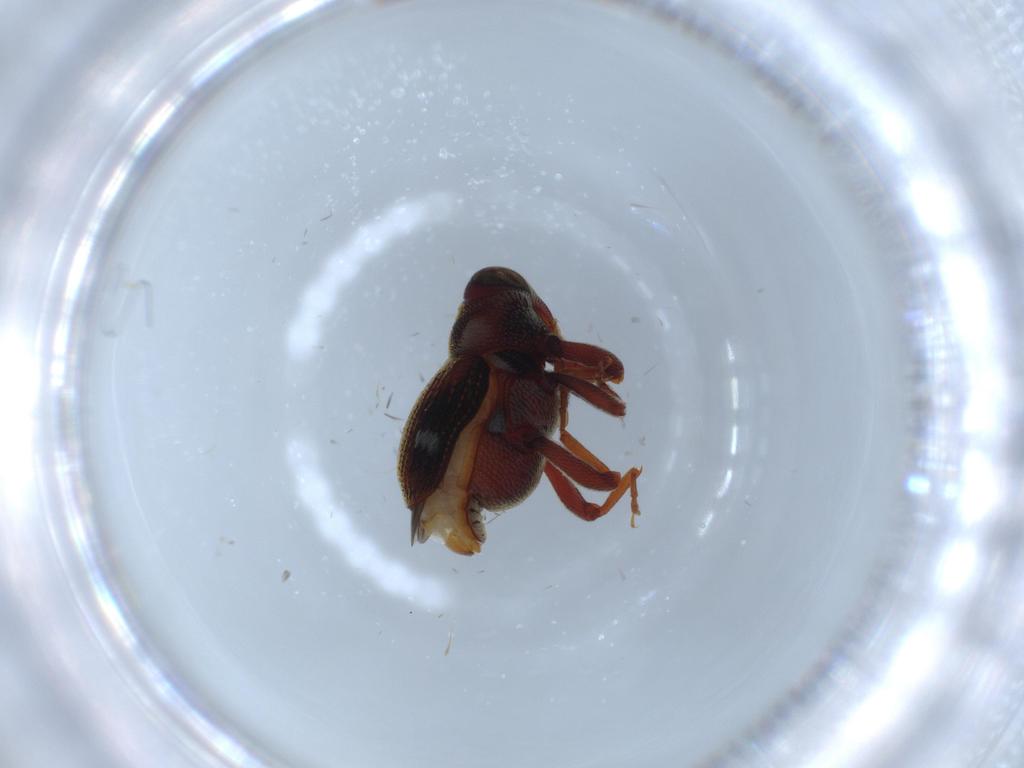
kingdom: Animalia
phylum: Arthropoda
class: Insecta
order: Coleoptera
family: Curculionidae
